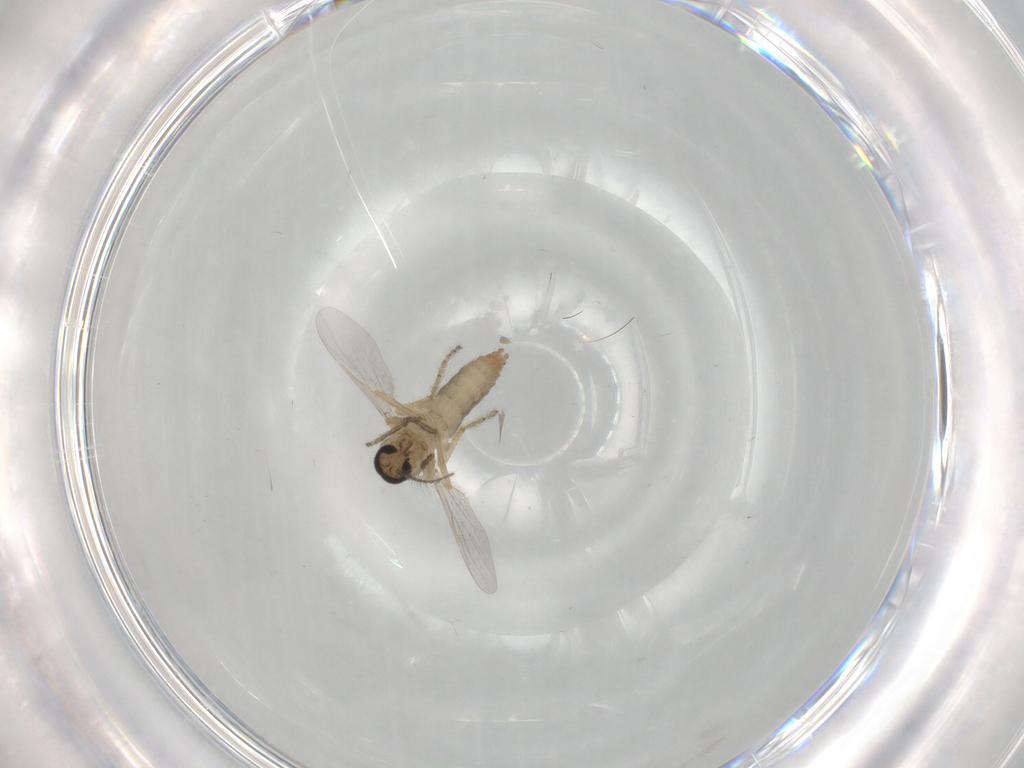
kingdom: Animalia
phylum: Arthropoda
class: Insecta
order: Diptera
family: Ceratopogonidae
